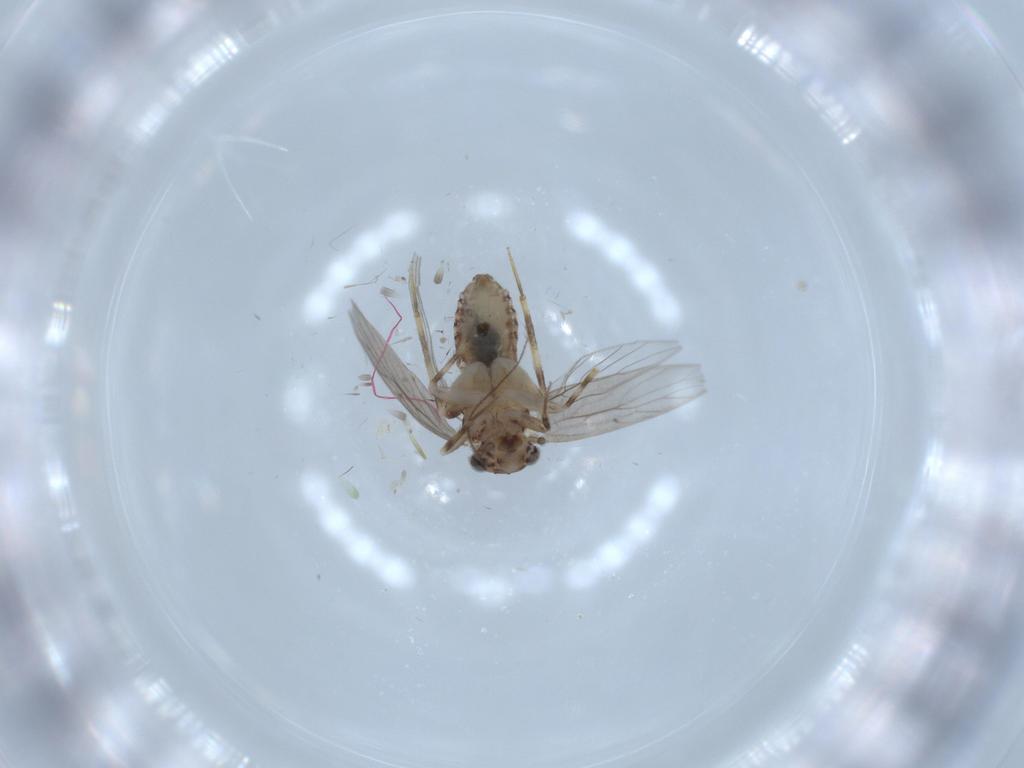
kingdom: Animalia
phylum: Arthropoda
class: Insecta
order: Psocodea
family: Lepidopsocidae
